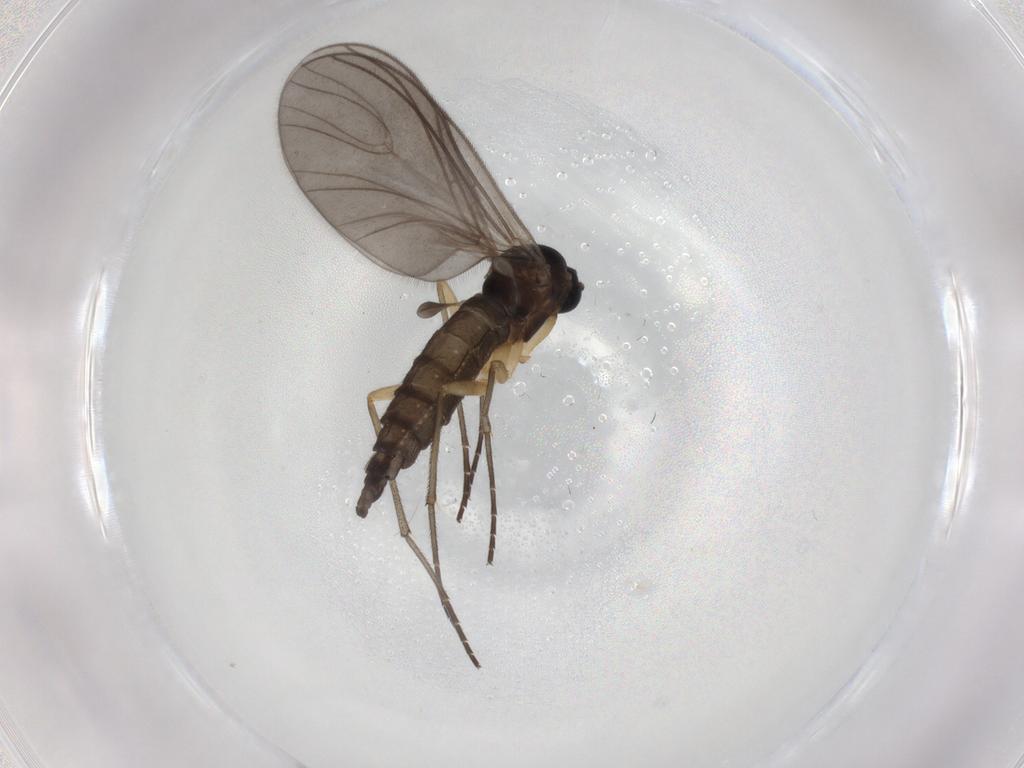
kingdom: Animalia
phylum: Arthropoda
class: Insecta
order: Diptera
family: Sciaridae
